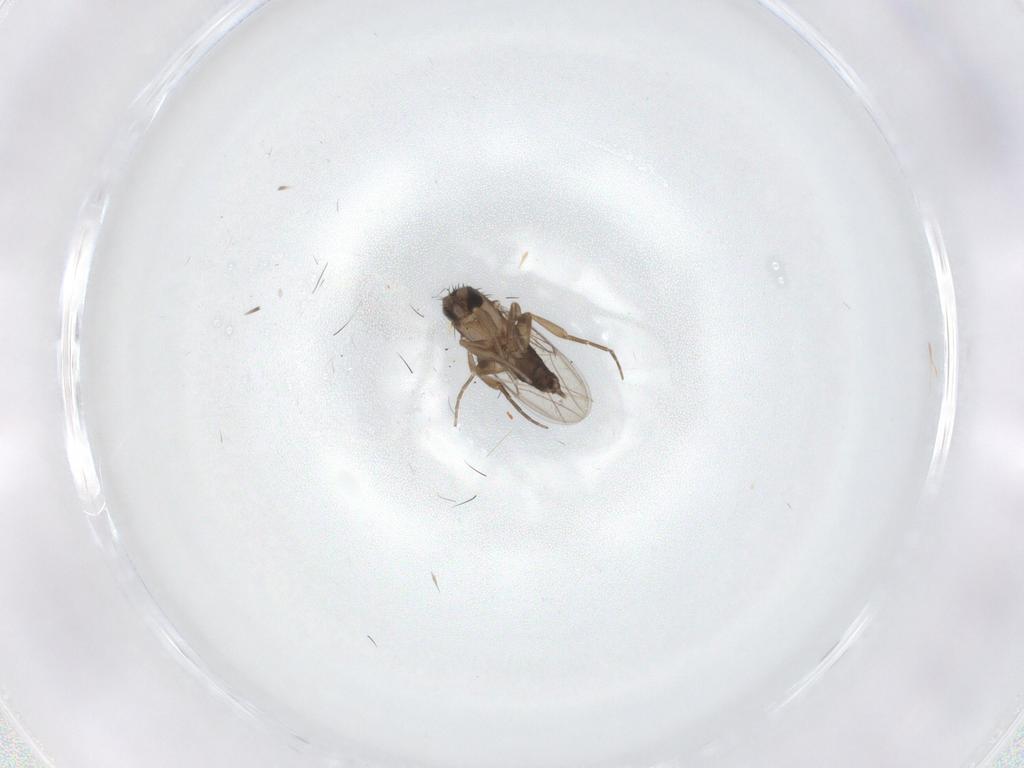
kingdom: Animalia
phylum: Arthropoda
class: Insecta
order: Diptera
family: Phoridae
